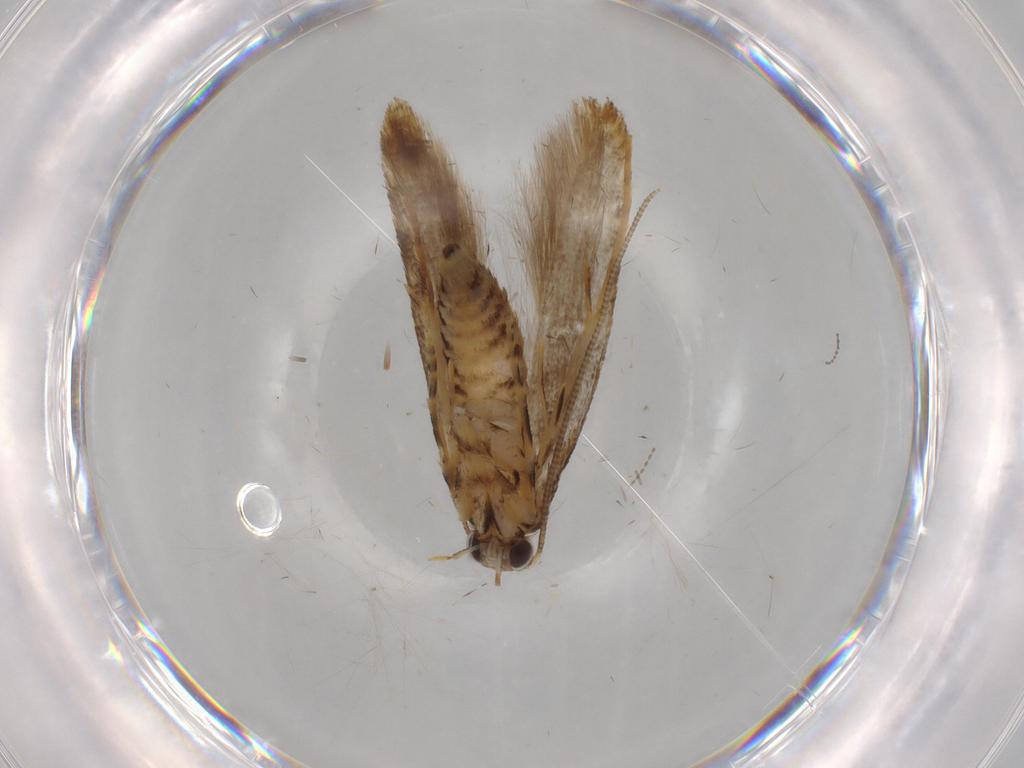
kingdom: Animalia
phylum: Arthropoda
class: Insecta
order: Lepidoptera
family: Tineidae
